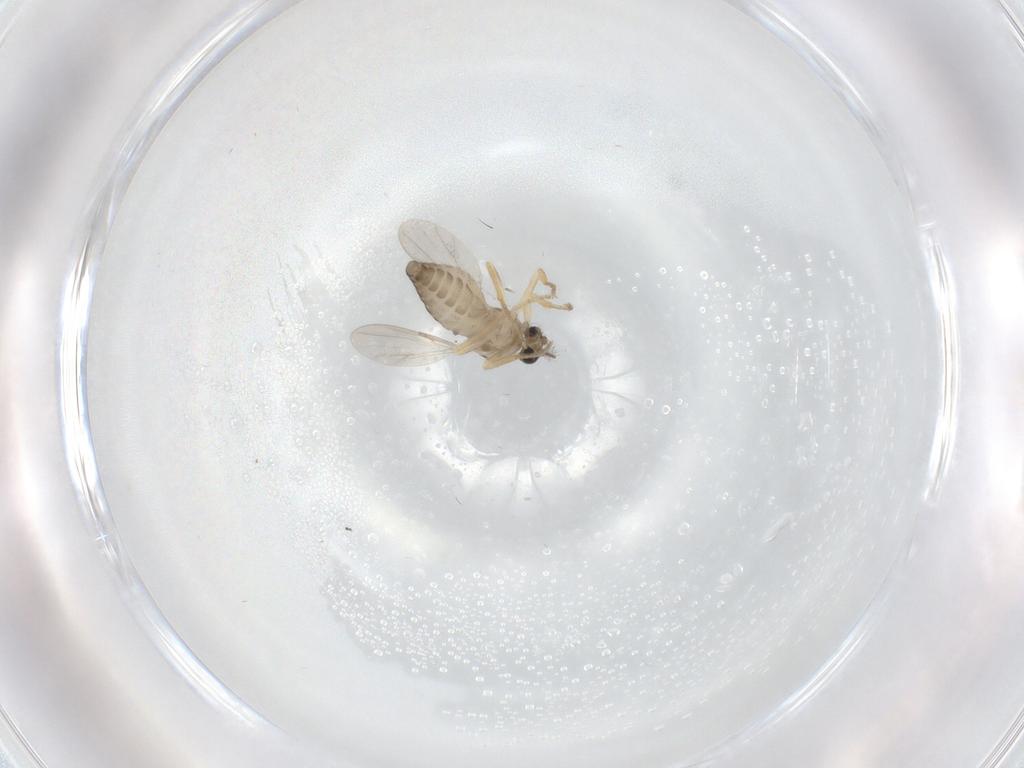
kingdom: Animalia
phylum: Arthropoda
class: Insecta
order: Diptera
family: Ceratopogonidae
